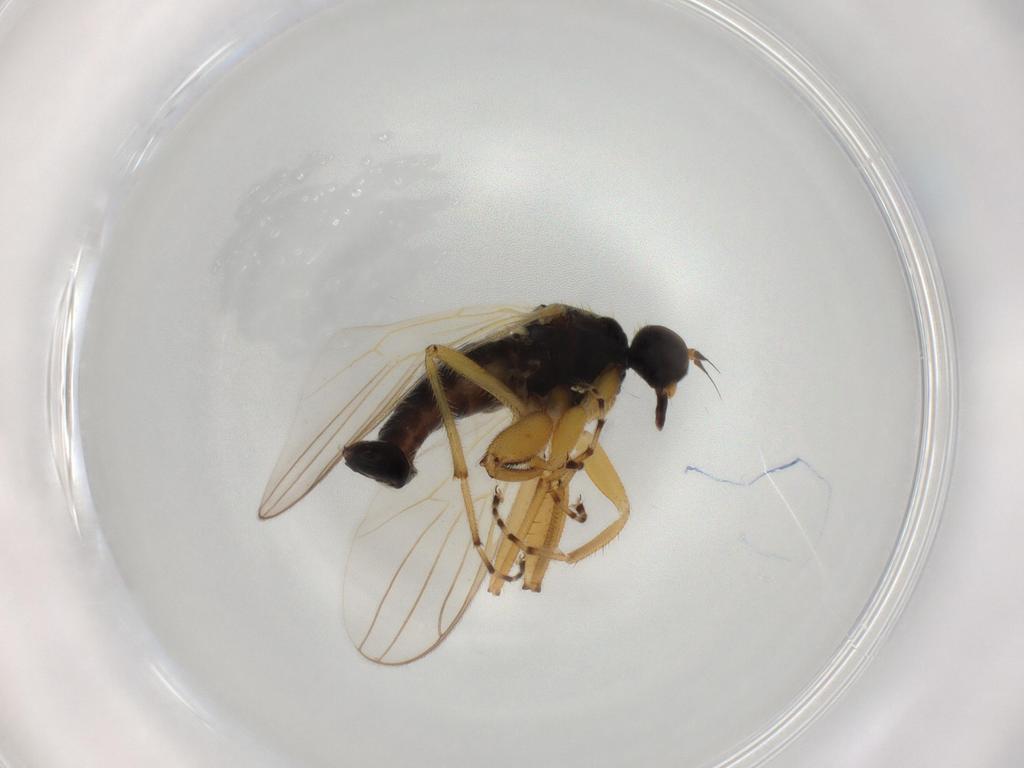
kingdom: Animalia
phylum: Arthropoda
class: Insecta
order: Diptera
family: Hybotidae
